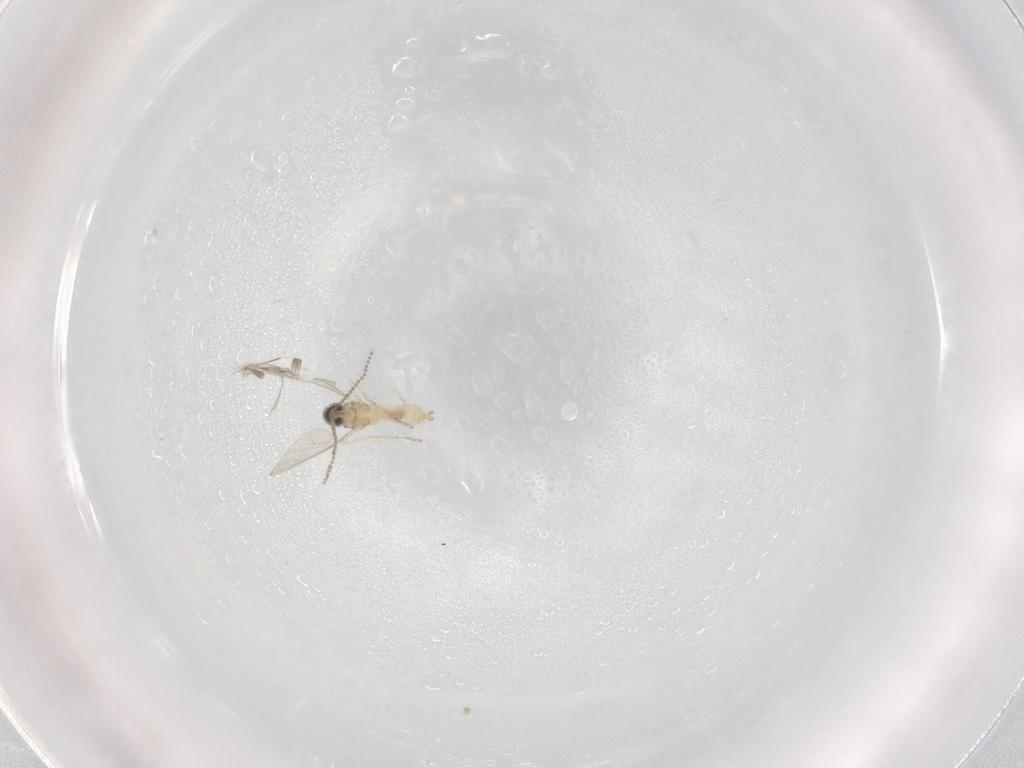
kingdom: Animalia
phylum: Arthropoda
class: Insecta
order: Diptera
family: Cecidomyiidae
